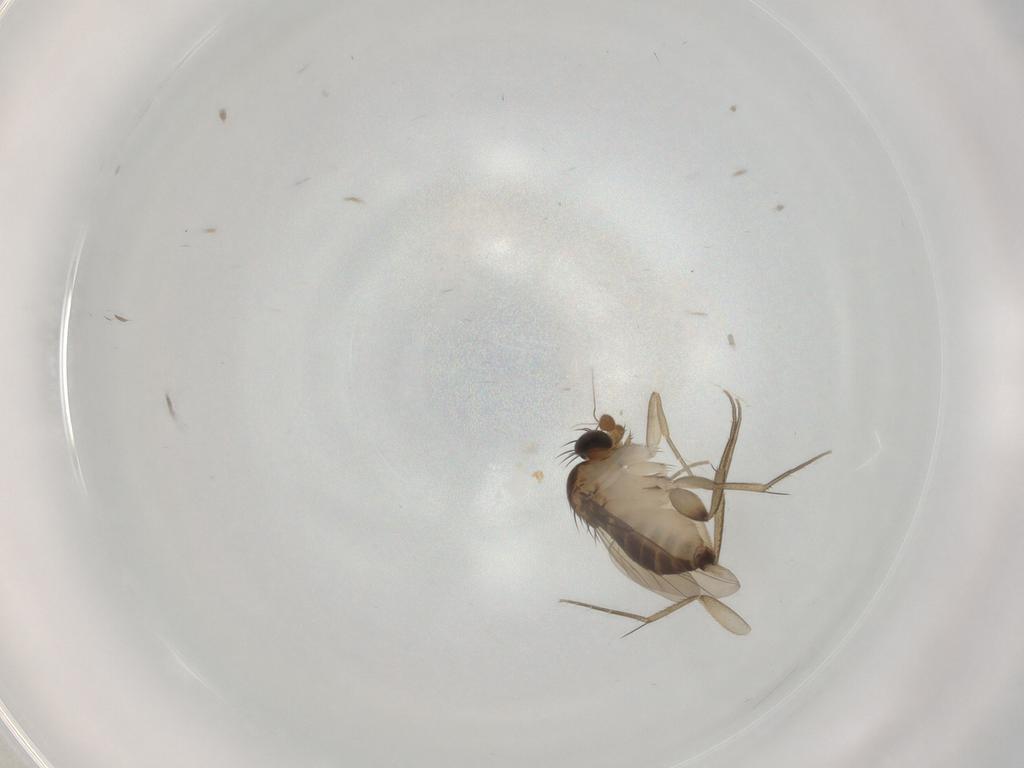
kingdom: Animalia
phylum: Arthropoda
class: Insecta
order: Diptera
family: Phoridae
